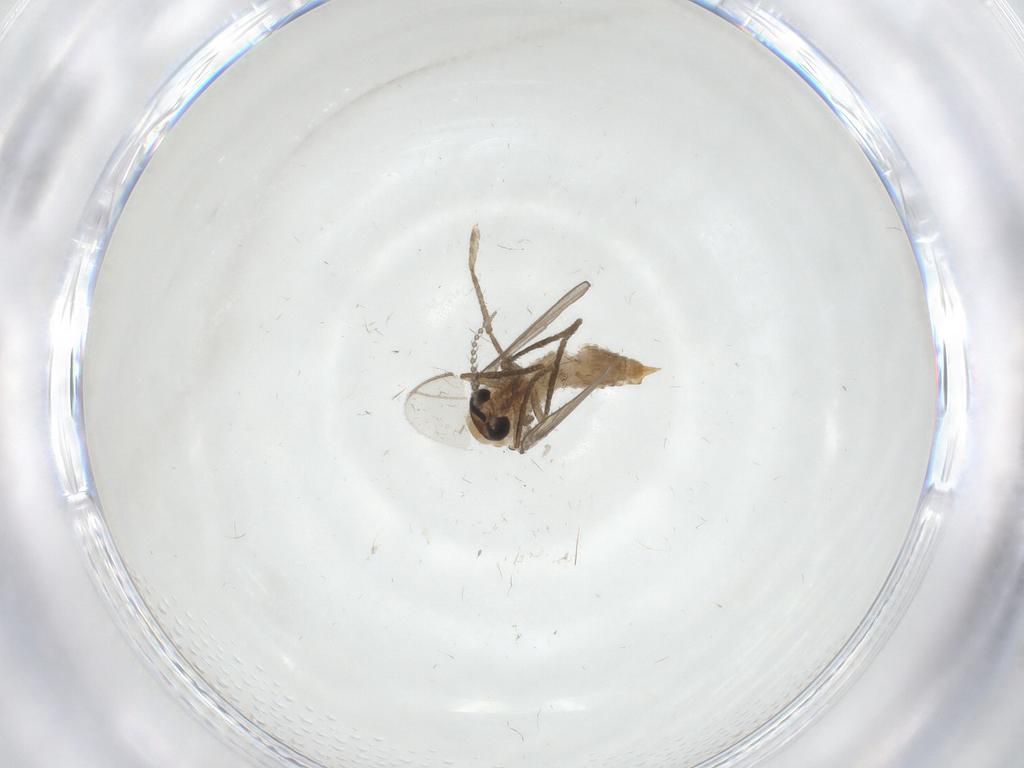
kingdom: Animalia
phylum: Arthropoda
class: Insecta
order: Diptera
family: Psychodidae
